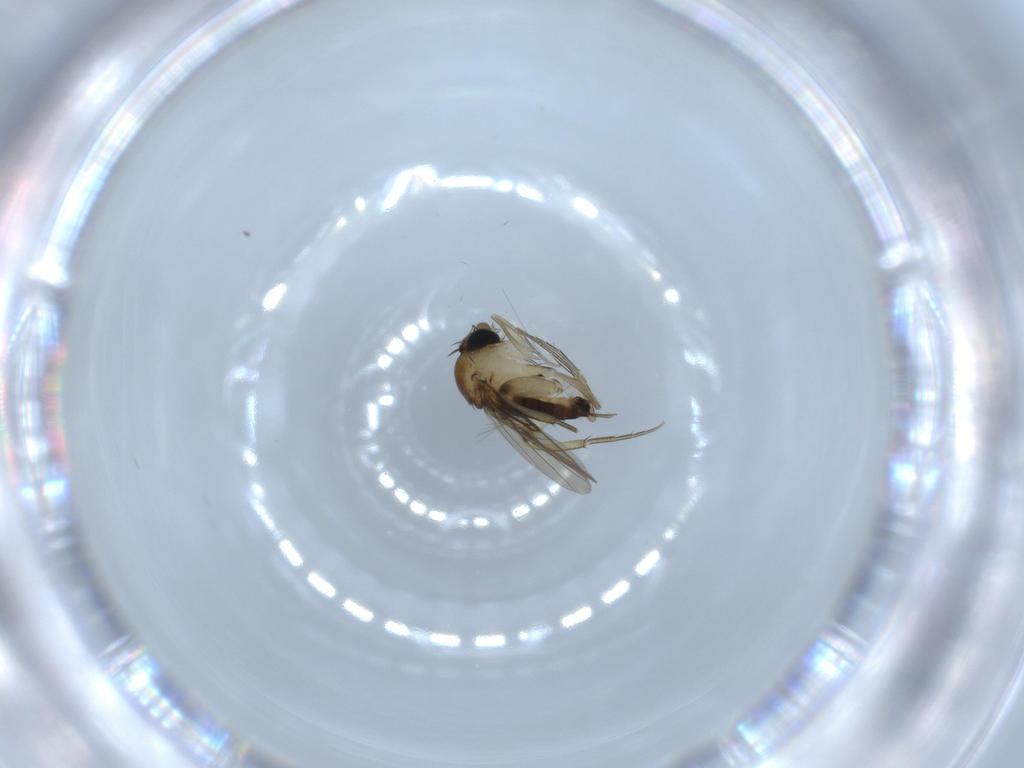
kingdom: Animalia
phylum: Arthropoda
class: Insecta
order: Diptera
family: Phoridae
